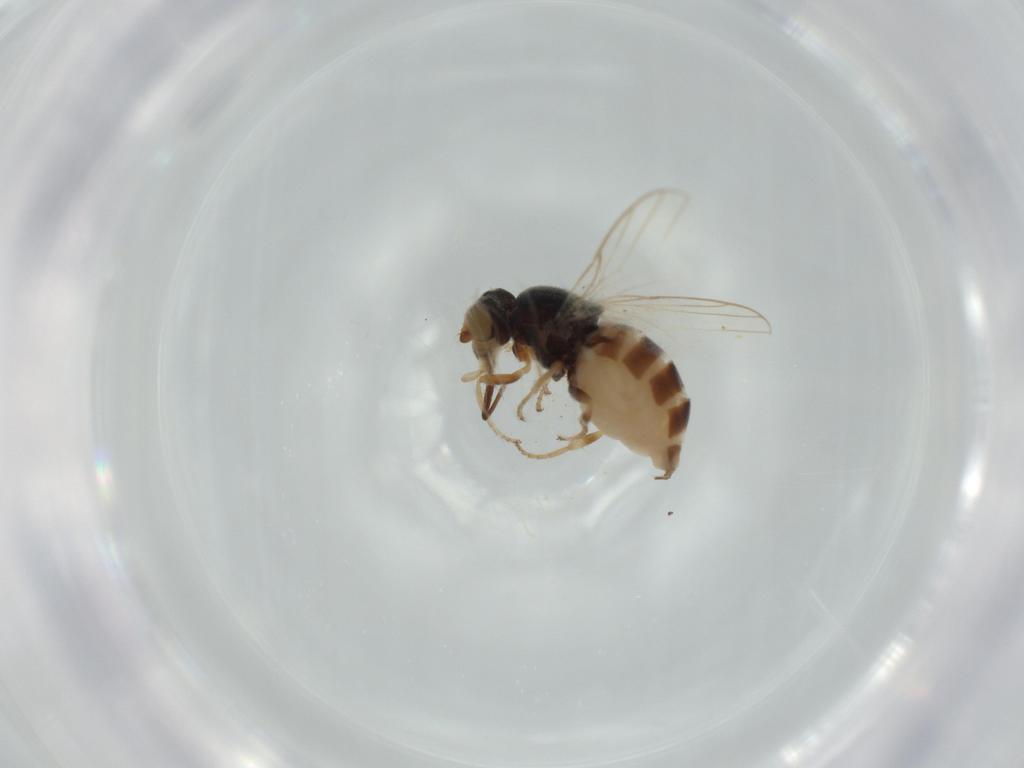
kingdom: Animalia
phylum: Arthropoda
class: Insecta
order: Diptera
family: Chloropidae
